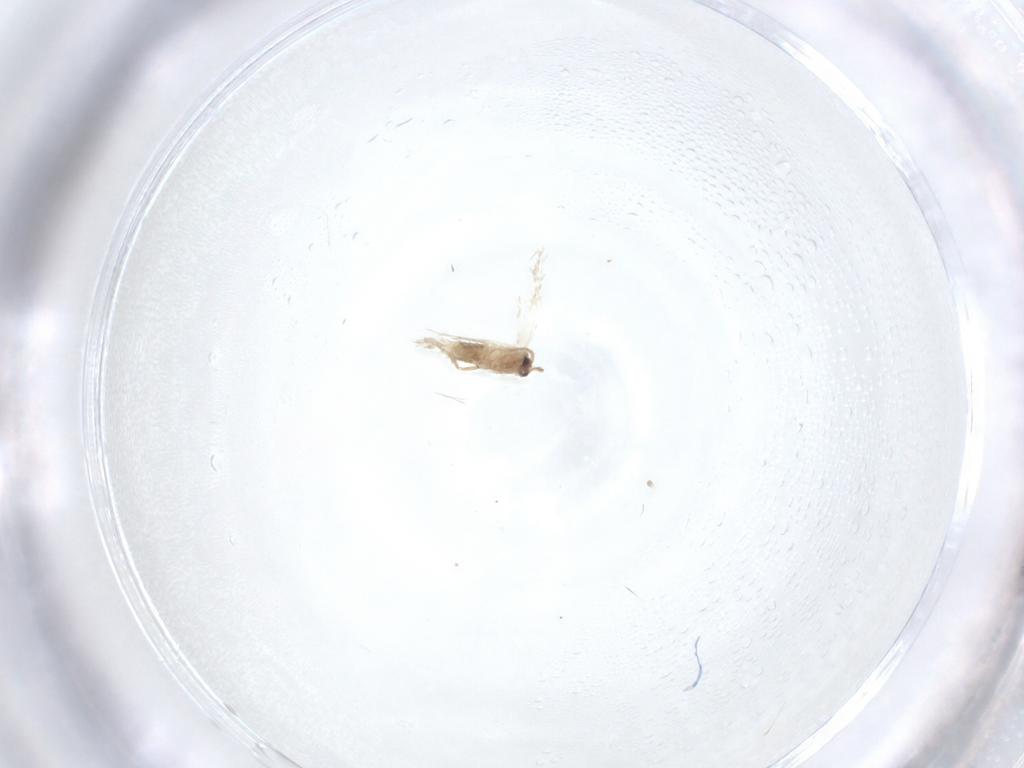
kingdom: Animalia
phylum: Arthropoda
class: Insecta
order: Lepidoptera
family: Nepticulidae
